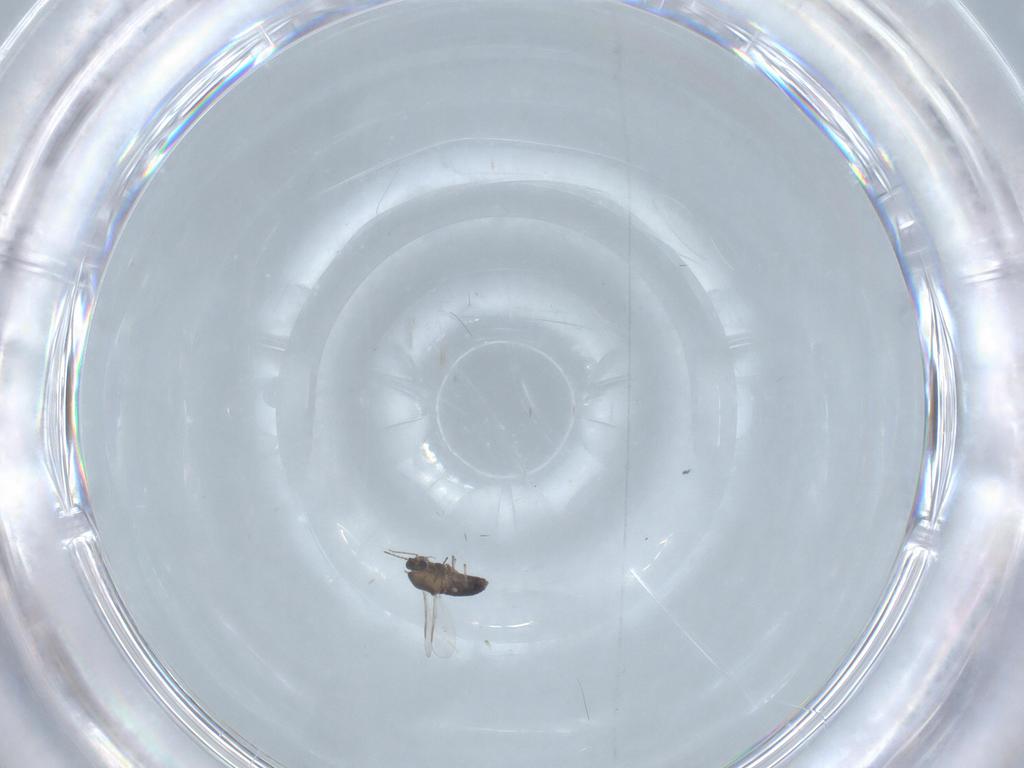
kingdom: Animalia
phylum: Arthropoda
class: Insecta
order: Diptera
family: Chironomidae
